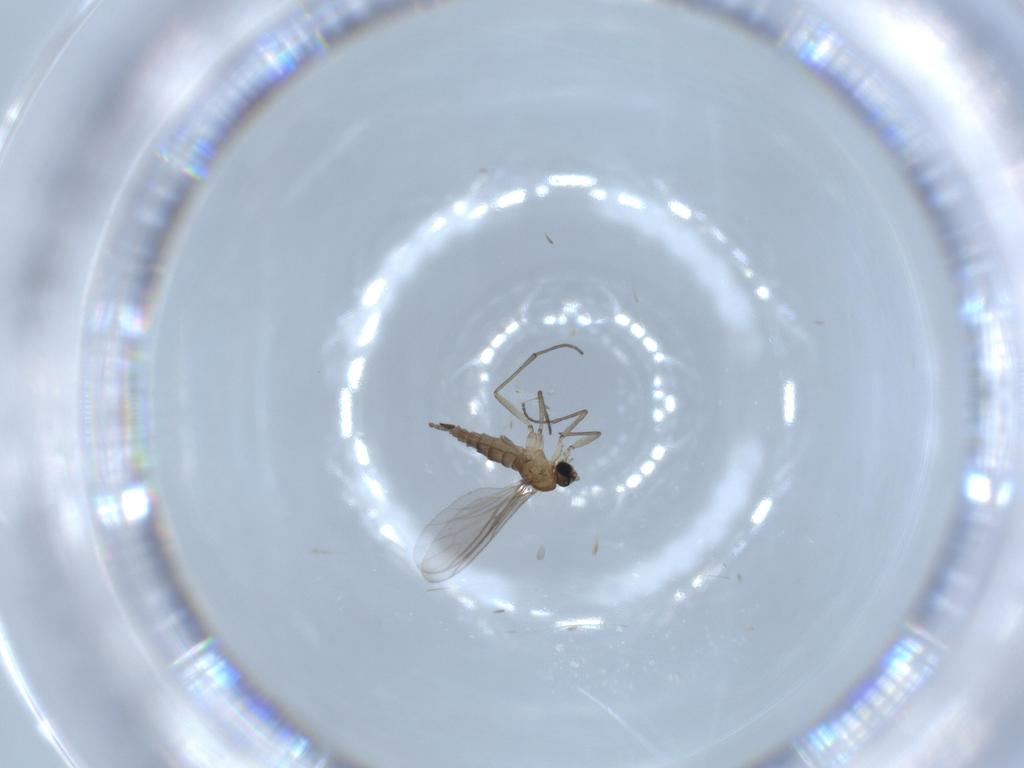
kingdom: Animalia
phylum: Arthropoda
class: Insecta
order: Diptera
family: Sciaridae
